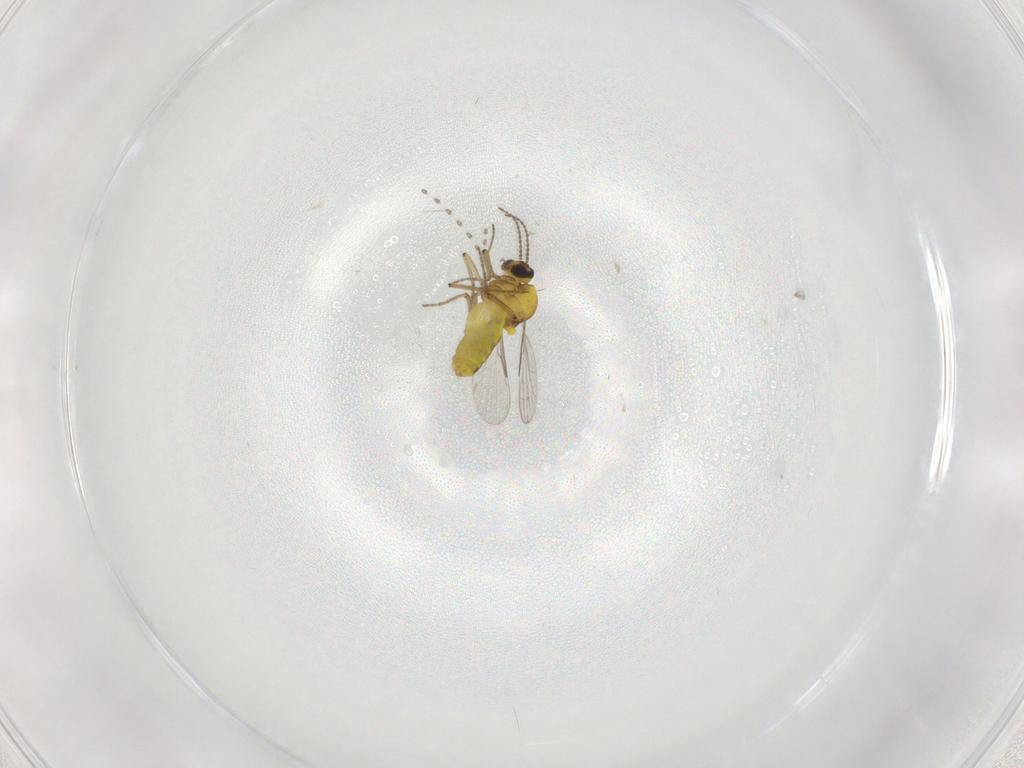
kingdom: Animalia
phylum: Arthropoda
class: Insecta
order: Diptera
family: Ceratopogonidae
